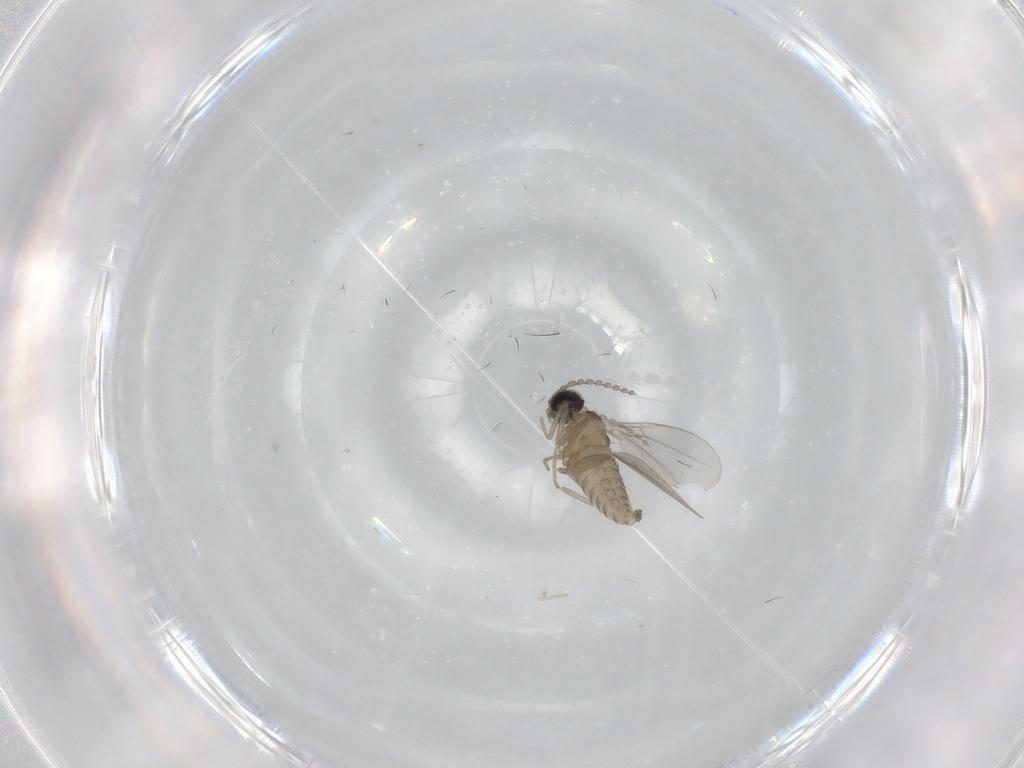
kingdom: Animalia
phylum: Arthropoda
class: Insecta
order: Diptera
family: Cecidomyiidae
